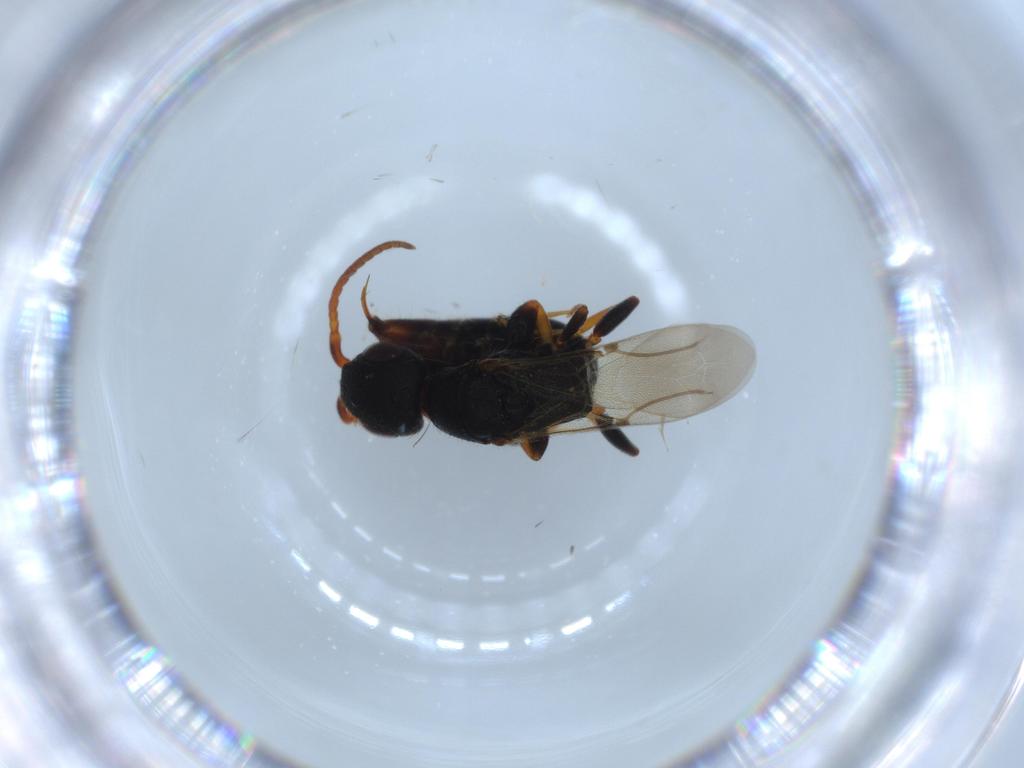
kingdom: Animalia
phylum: Arthropoda
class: Insecta
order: Hymenoptera
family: Bethylidae
